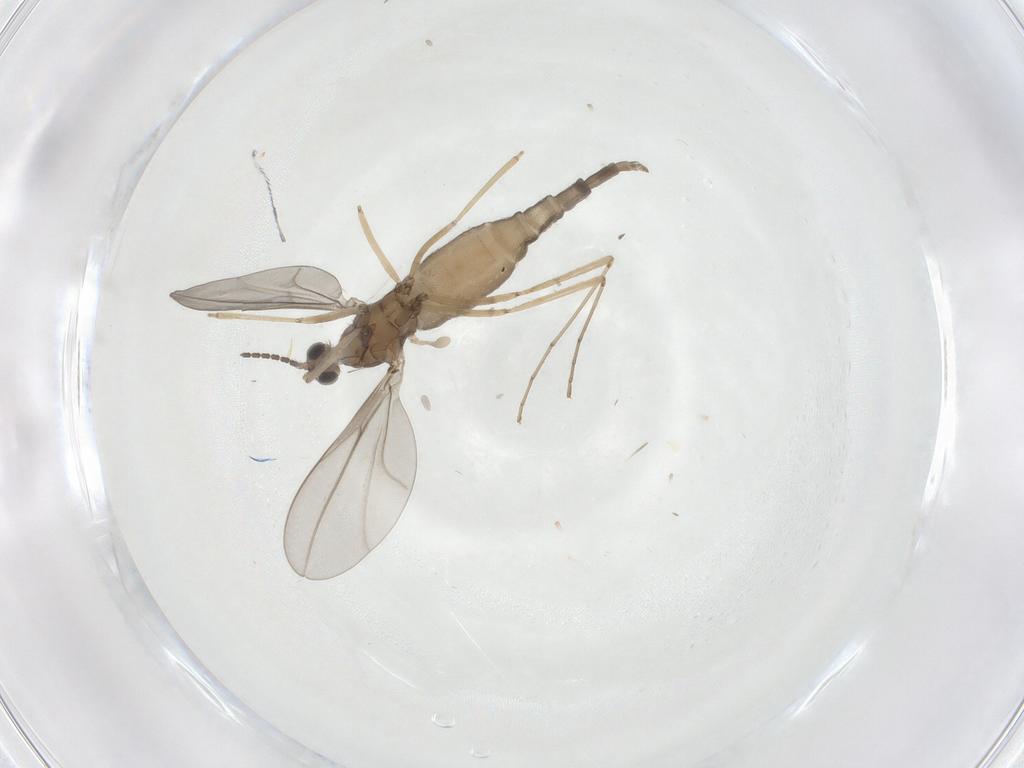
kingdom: Animalia
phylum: Arthropoda
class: Insecta
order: Diptera
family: Cecidomyiidae
